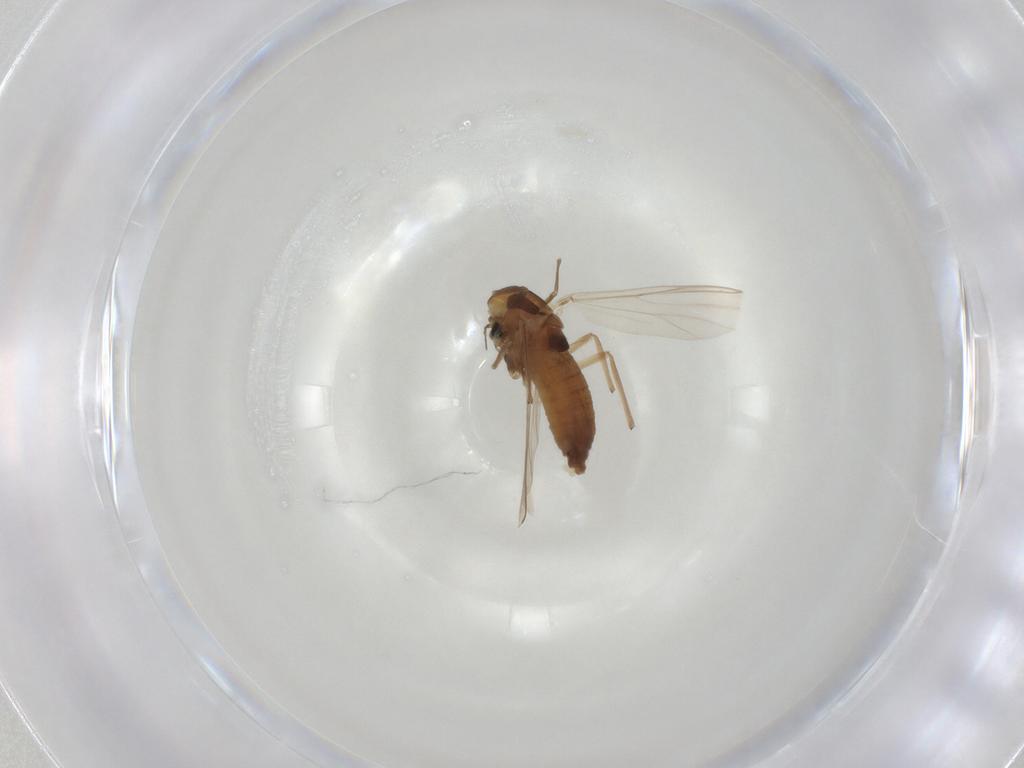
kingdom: Animalia
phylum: Arthropoda
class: Insecta
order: Diptera
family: Chironomidae
